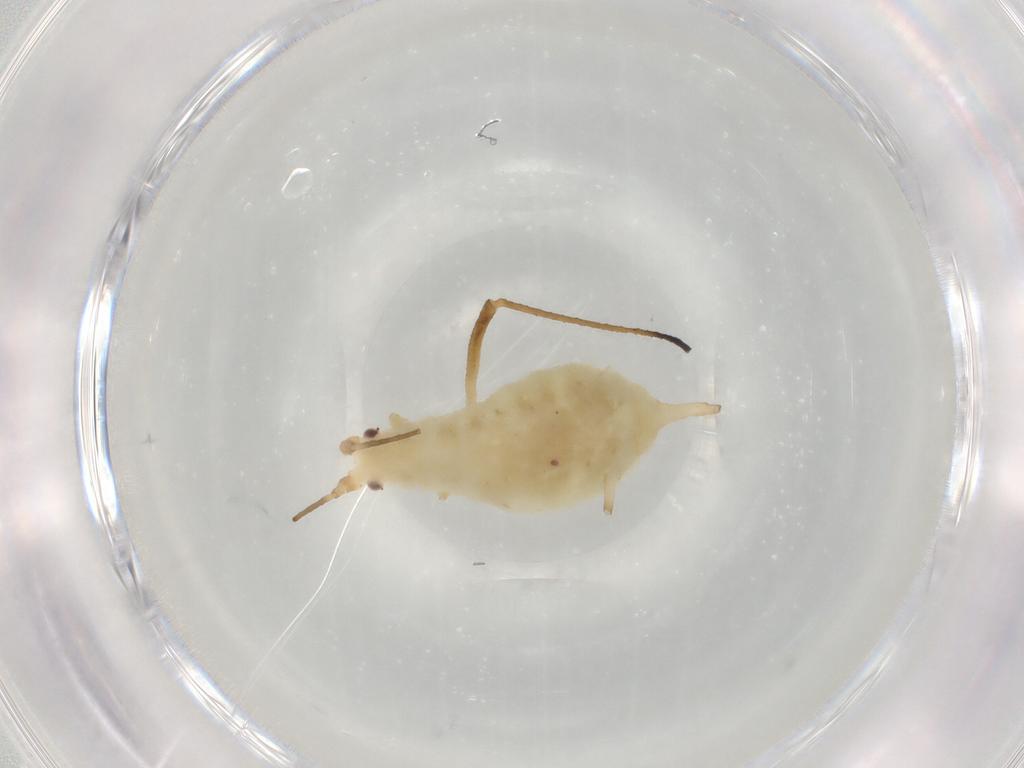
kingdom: Animalia
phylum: Arthropoda
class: Insecta
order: Hemiptera
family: Aphididae
